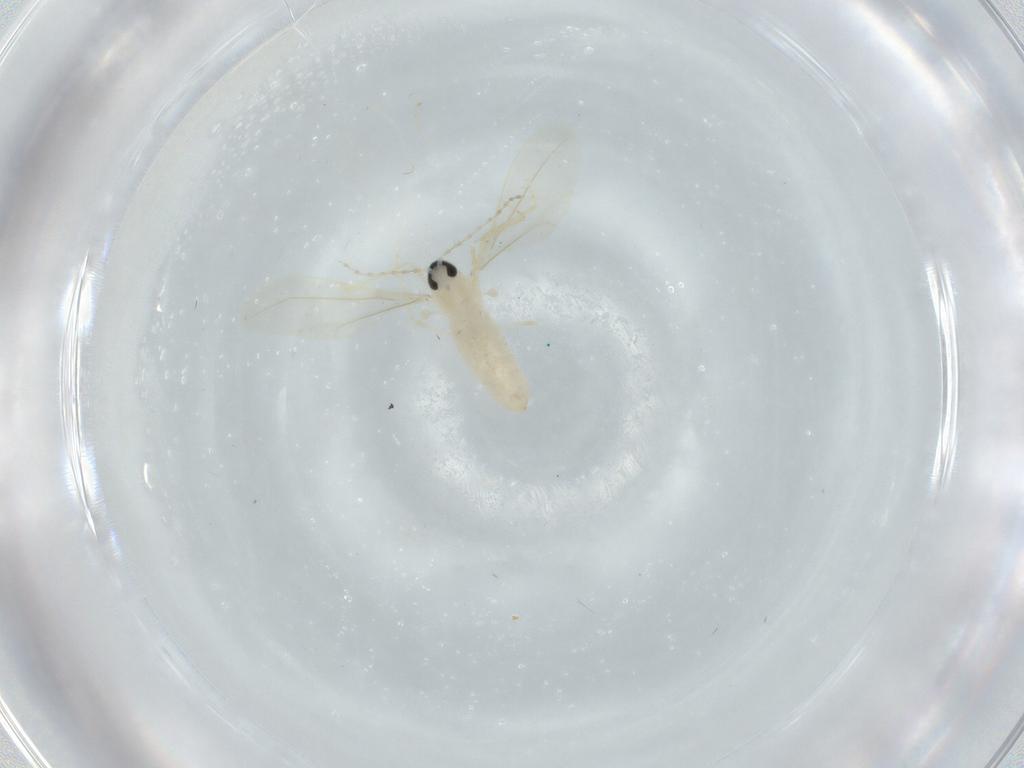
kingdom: Animalia
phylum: Arthropoda
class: Insecta
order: Diptera
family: Cecidomyiidae
